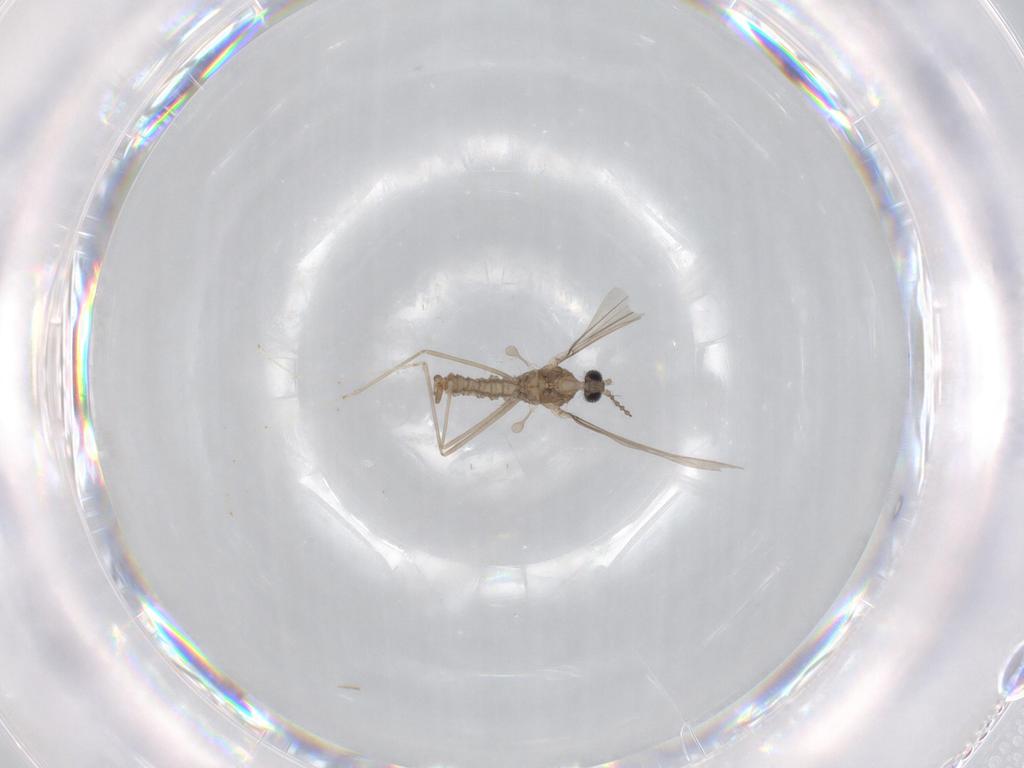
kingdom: Animalia
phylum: Arthropoda
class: Insecta
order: Diptera
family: Cecidomyiidae
